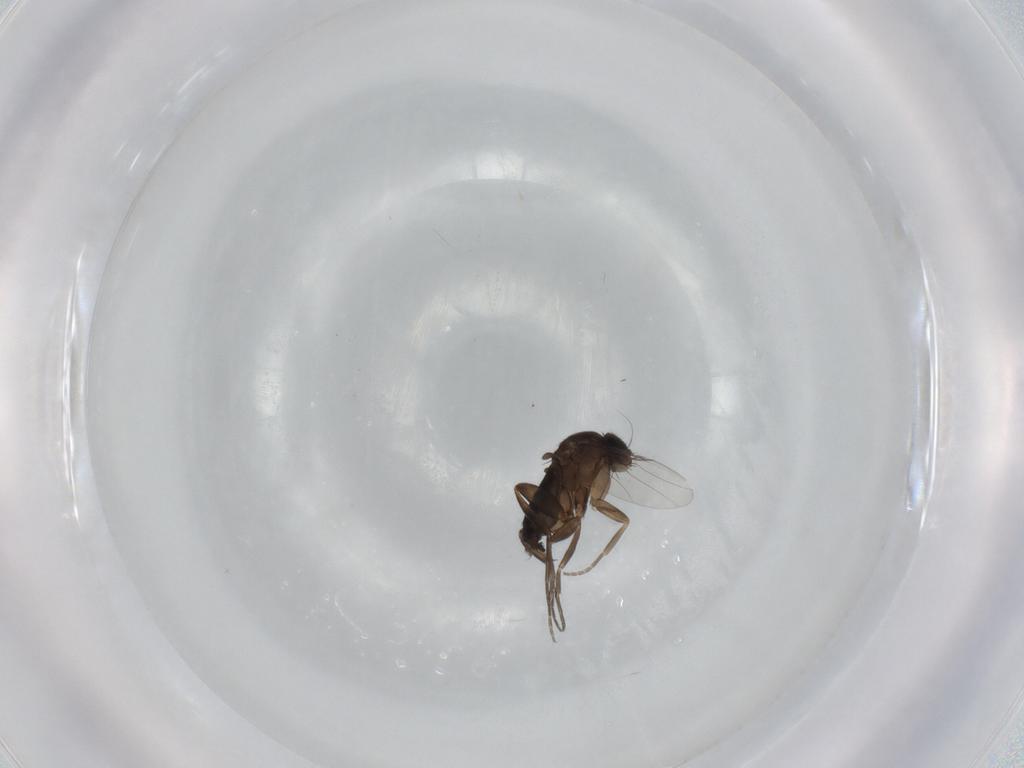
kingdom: Animalia
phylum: Arthropoda
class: Insecta
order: Diptera
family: Phoridae
